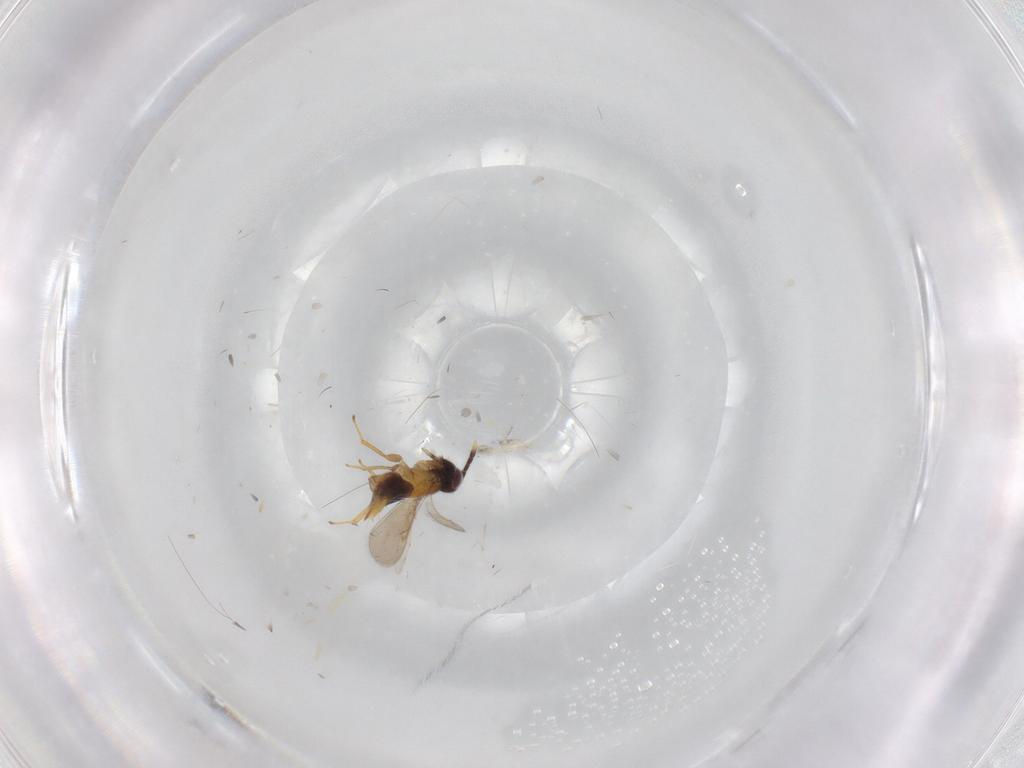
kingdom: Animalia
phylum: Arthropoda
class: Insecta
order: Hymenoptera
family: Aphelinidae
